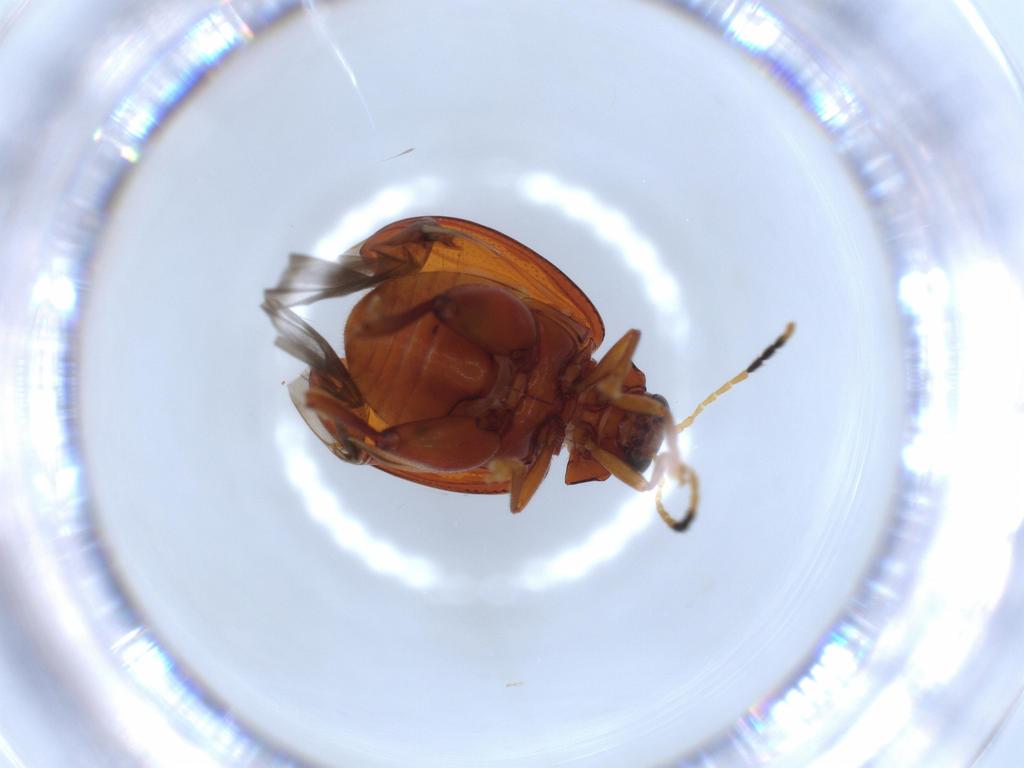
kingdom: Animalia
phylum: Arthropoda
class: Insecta
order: Coleoptera
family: Chrysomelidae
